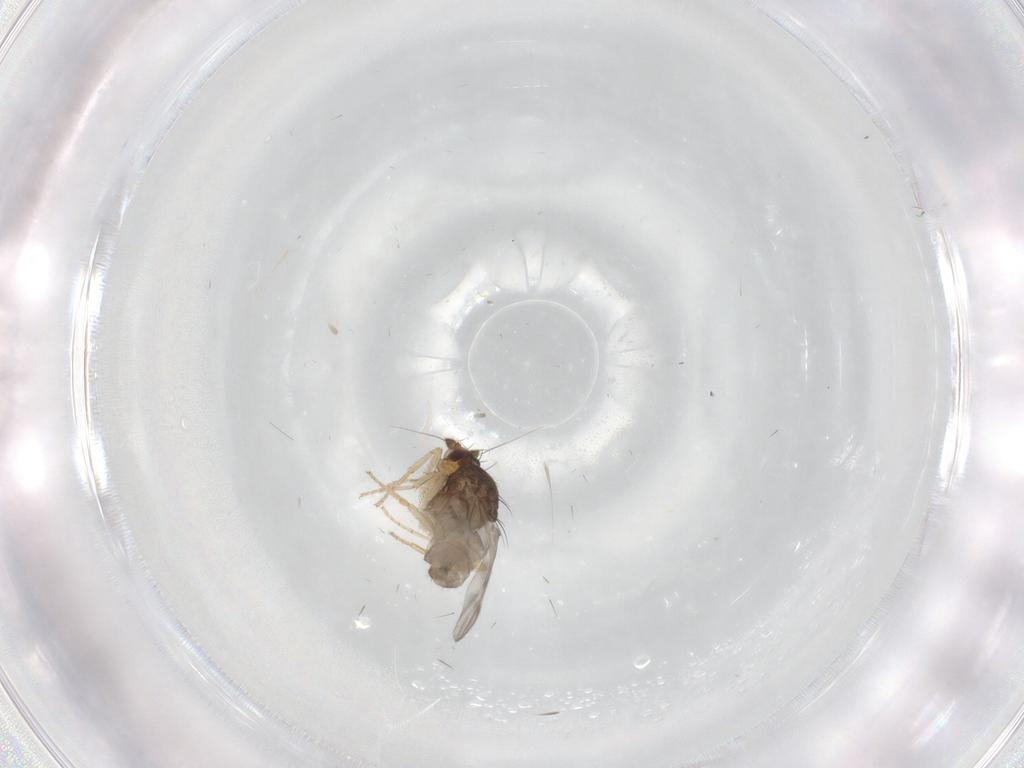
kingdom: Animalia
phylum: Arthropoda
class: Insecta
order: Diptera
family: Sphaeroceridae
